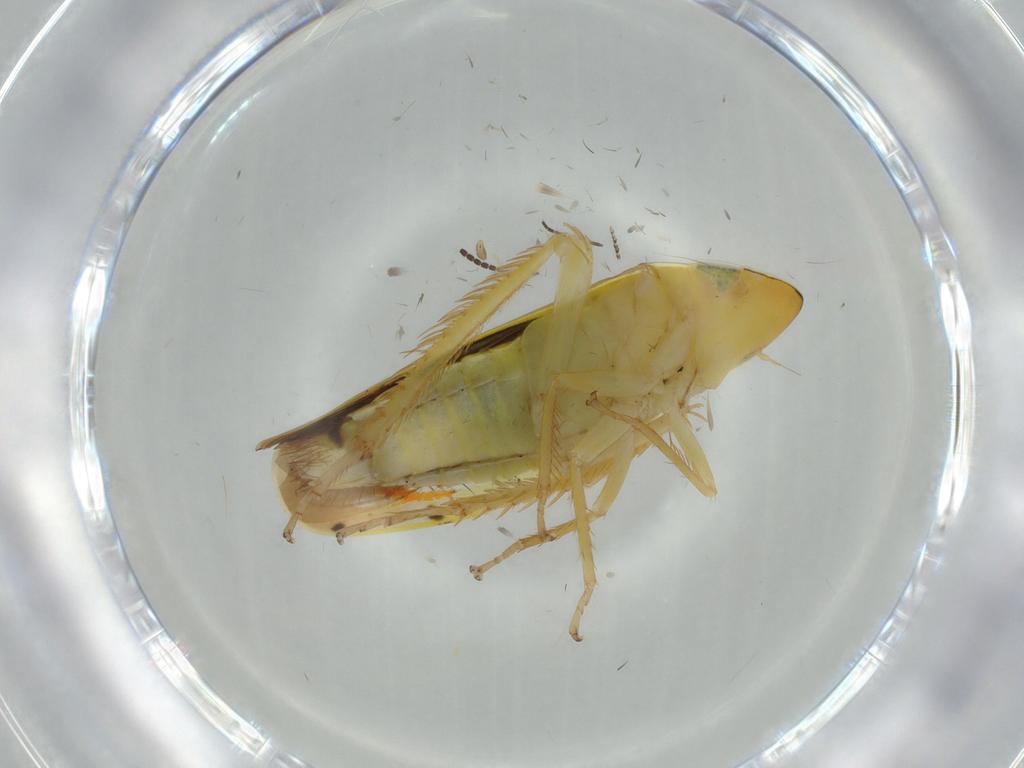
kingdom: Animalia
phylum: Arthropoda
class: Insecta
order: Hemiptera
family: Cicadellidae
